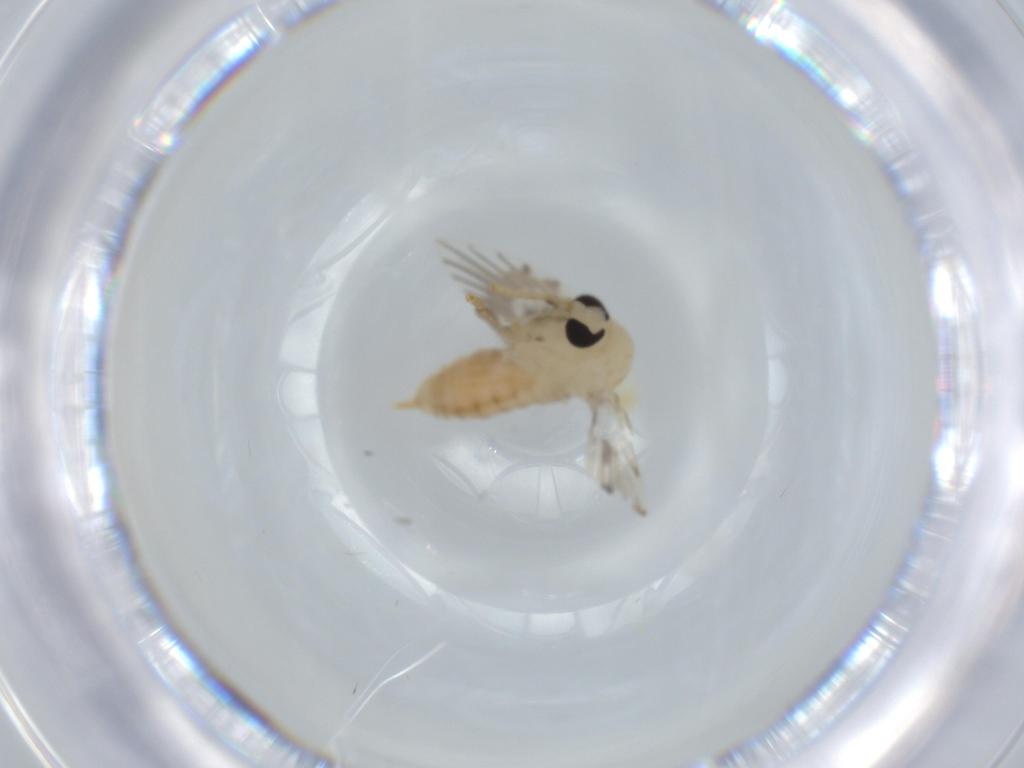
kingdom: Animalia
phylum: Arthropoda
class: Insecta
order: Diptera
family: Psychodidae
